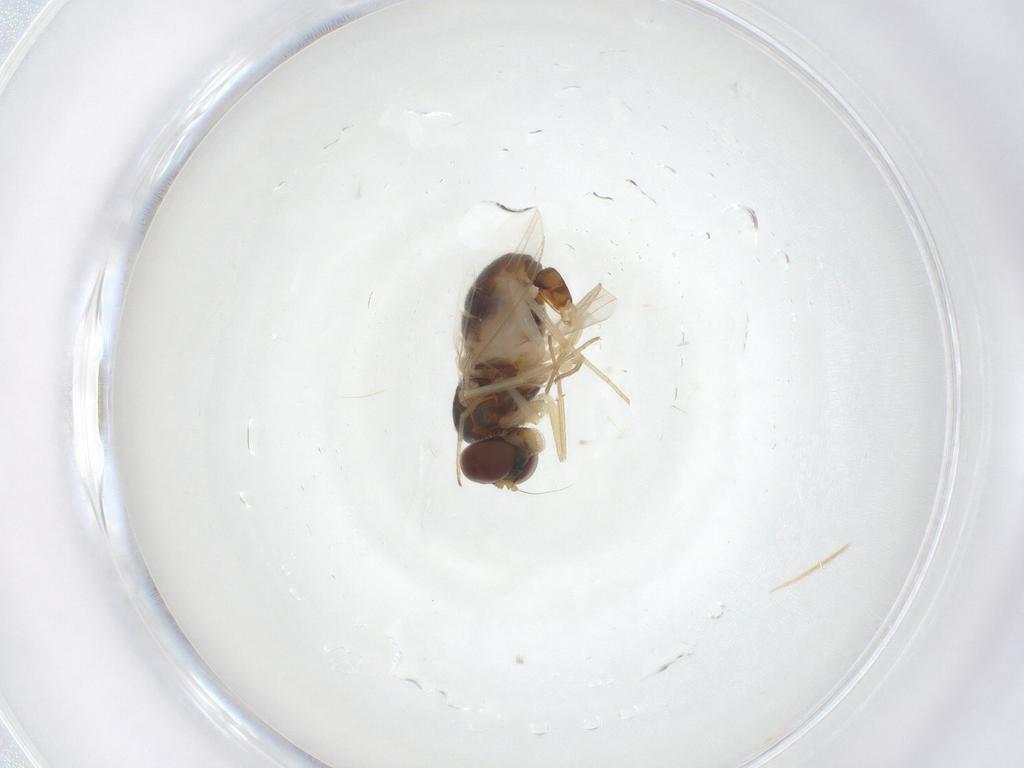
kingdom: Animalia
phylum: Arthropoda
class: Insecta
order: Diptera
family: Dolichopodidae
